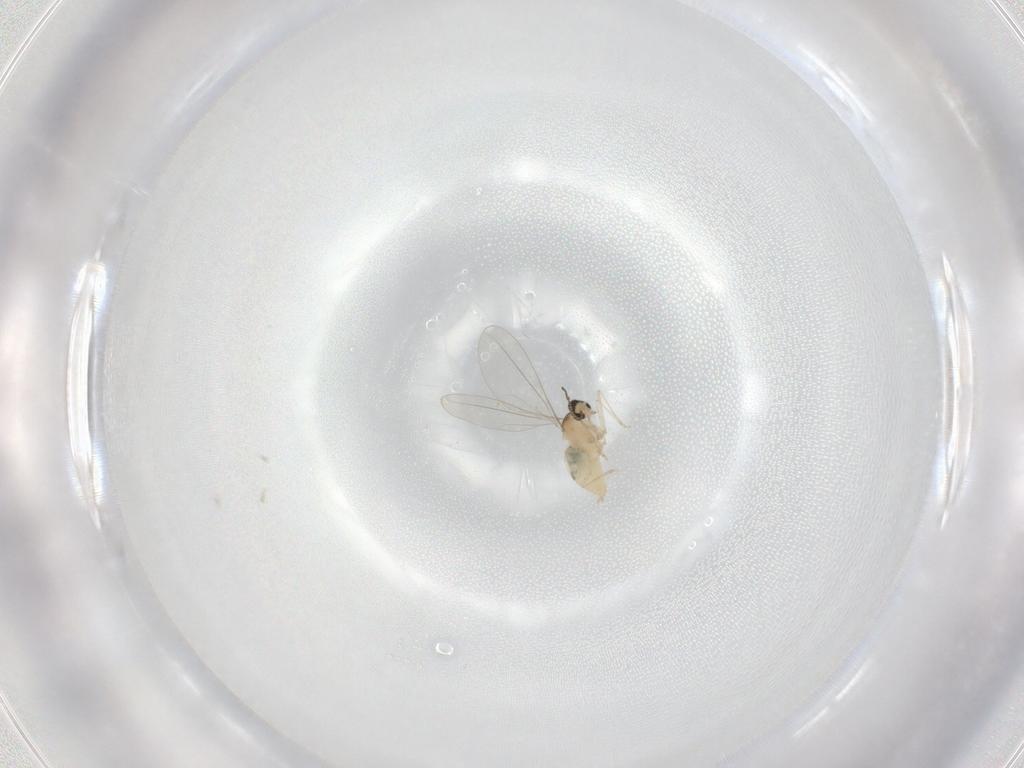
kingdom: Animalia
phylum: Arthropoda
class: Insecta
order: Diptera
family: Cecidomyiidae
